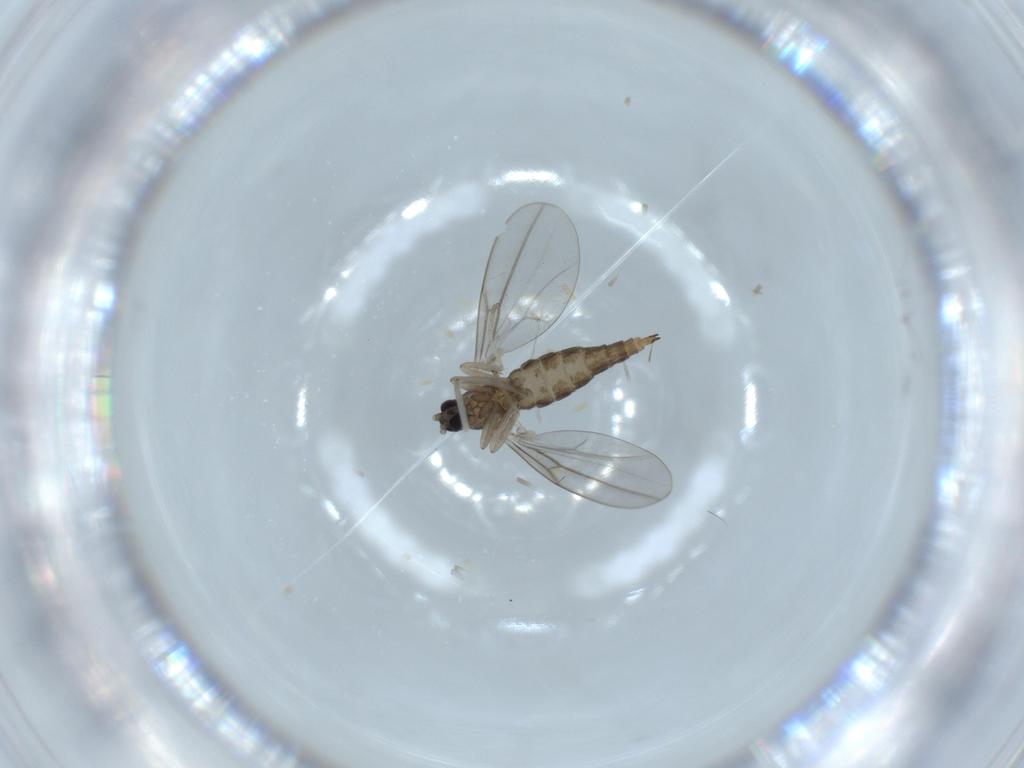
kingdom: Animalia
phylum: Arthropoda
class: Insecta
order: Diptera
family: Cecidomyiidae
